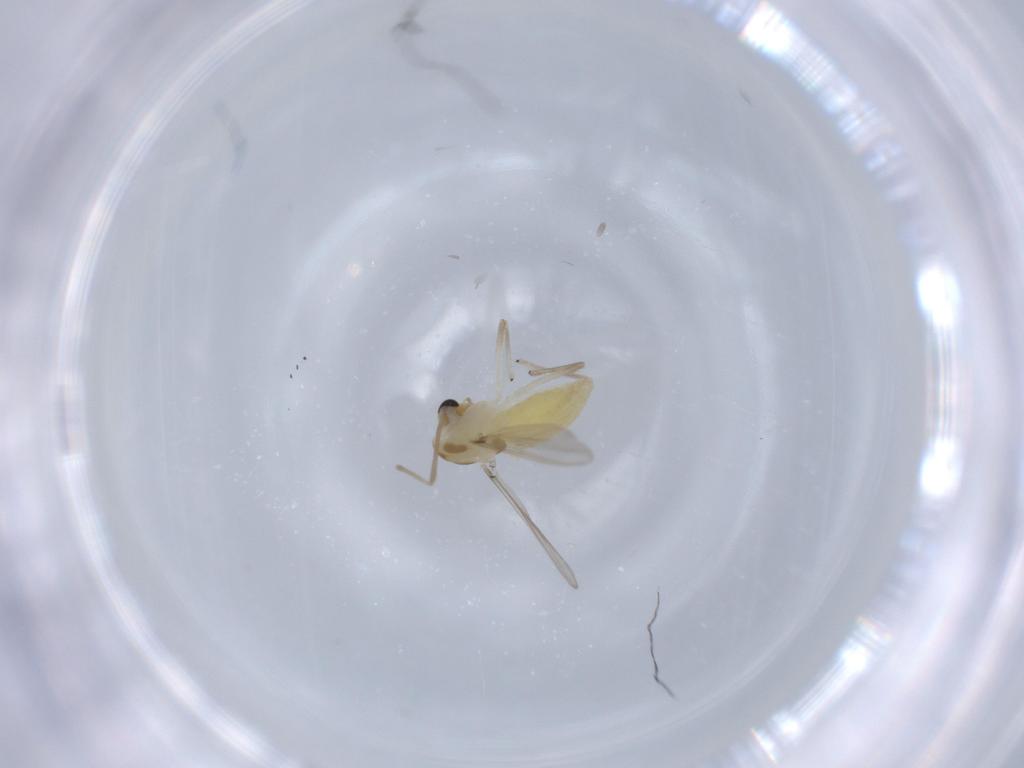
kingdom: Animalia
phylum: Arthropoda
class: Insecta
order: Diptera
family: Chironomidae
